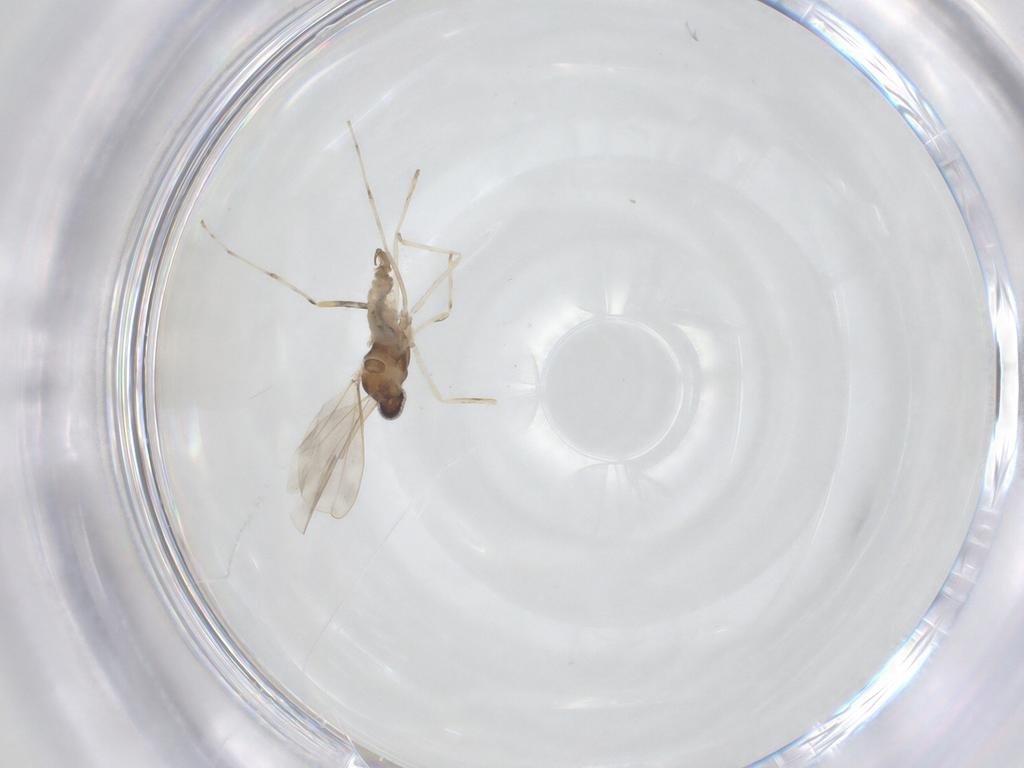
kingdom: Animalia
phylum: Arthropoda
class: Insecta
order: Diptera
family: Cecidomyiidae
